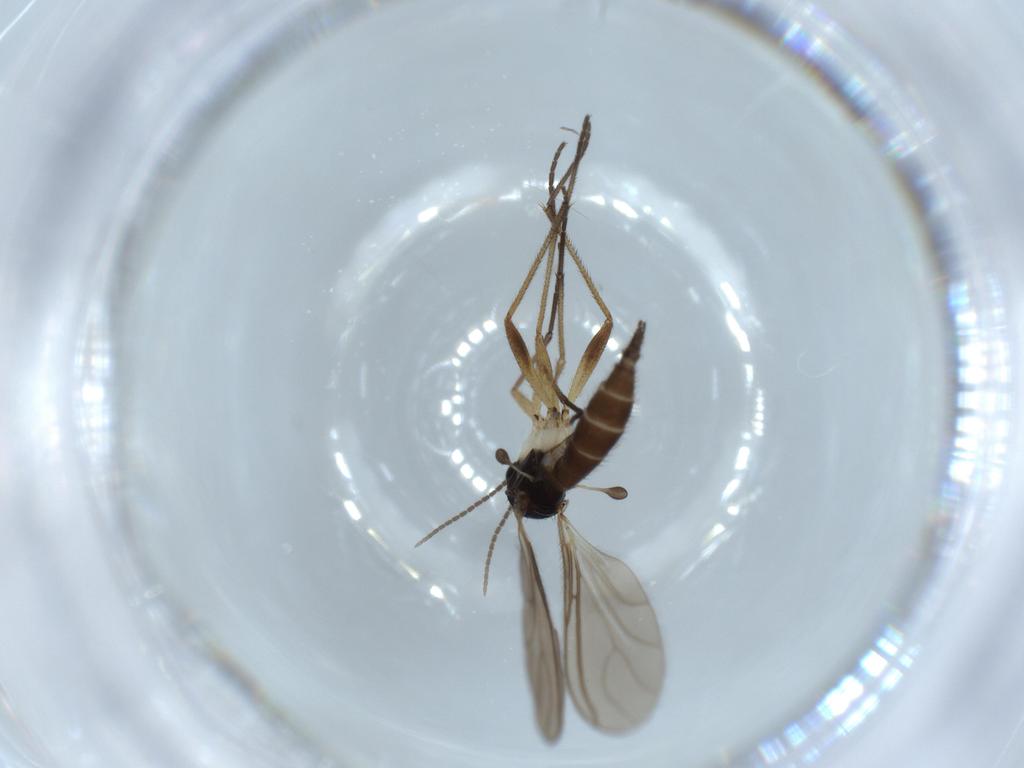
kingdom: Animalia
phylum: Arthropoda
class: Insecta
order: Diptera
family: Sciaridae
